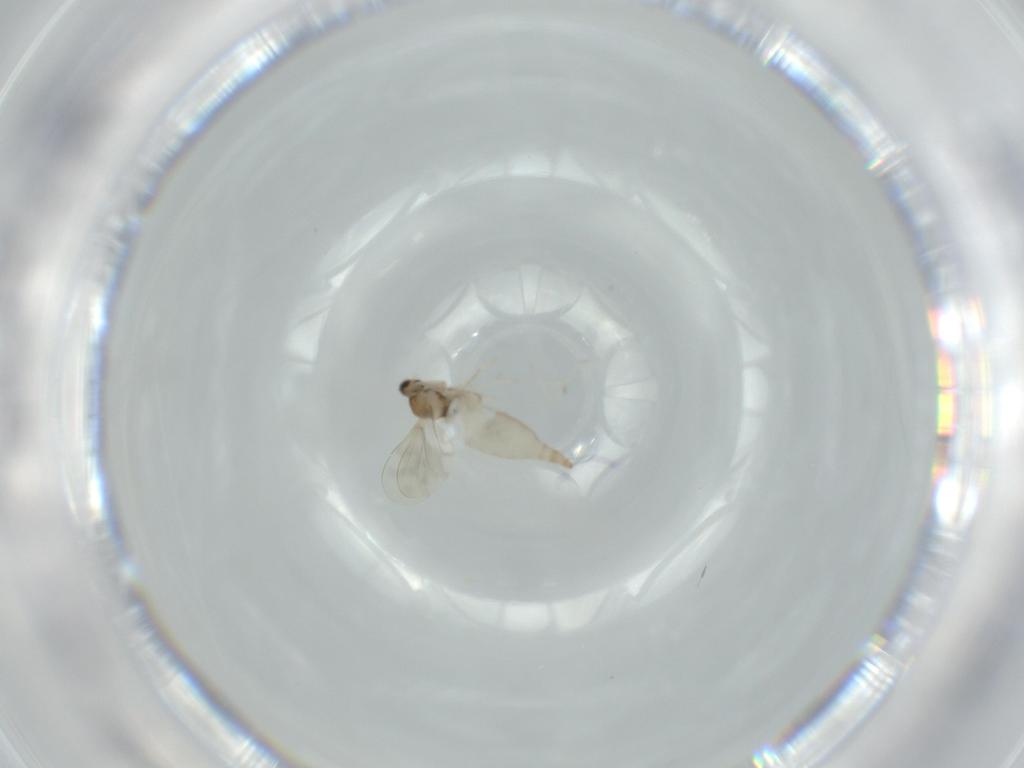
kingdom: Animalia
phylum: Arthropoda
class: Insecta
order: Diptera
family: Cecidomyiidae
